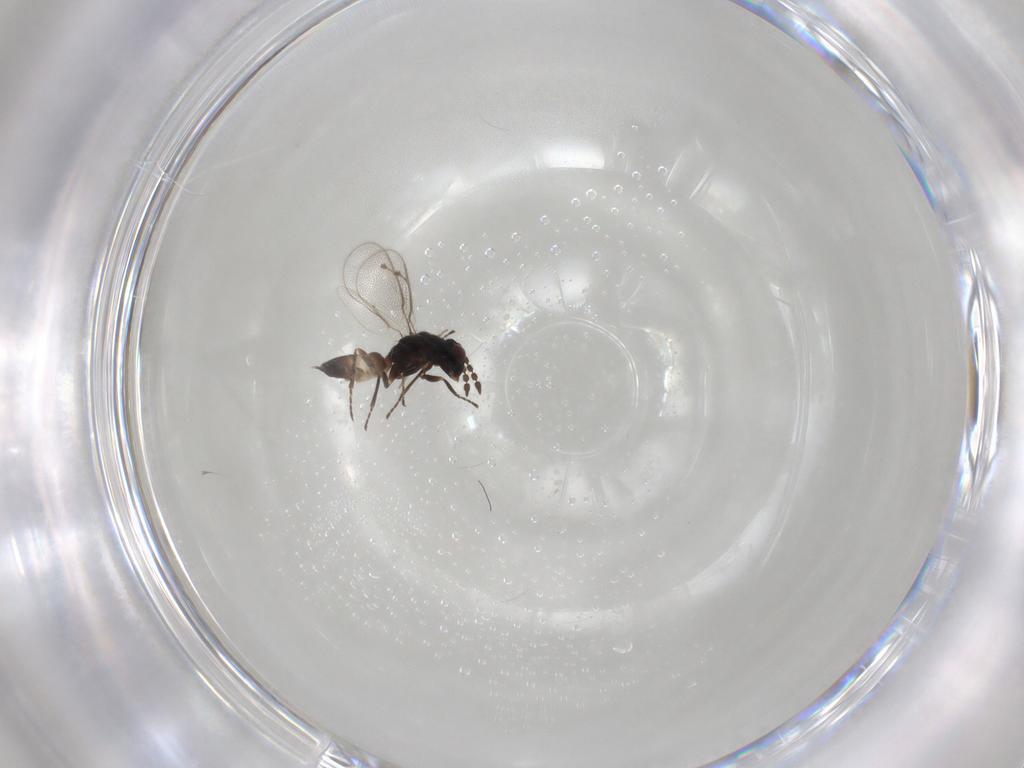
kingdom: Animalia
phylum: Arthropoda
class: Insecta
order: Hymenoptera
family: Eulophidae
